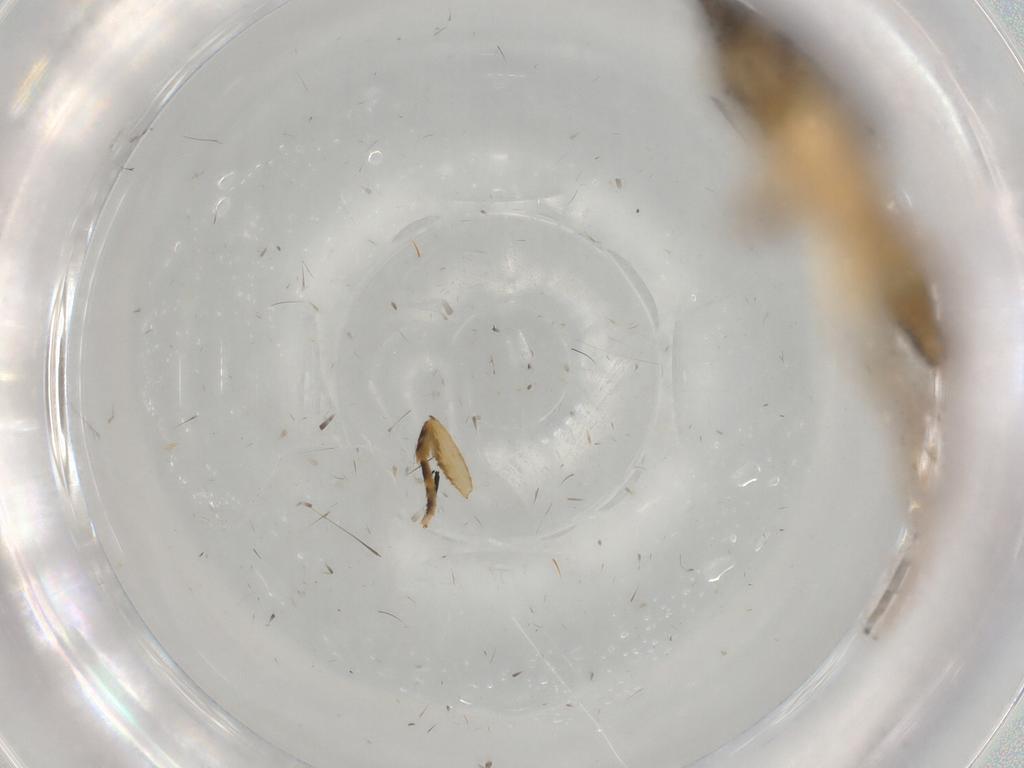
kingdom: Animalia
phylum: Arthropoda
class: Insecta
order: Lepidoptera
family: Tineidae
